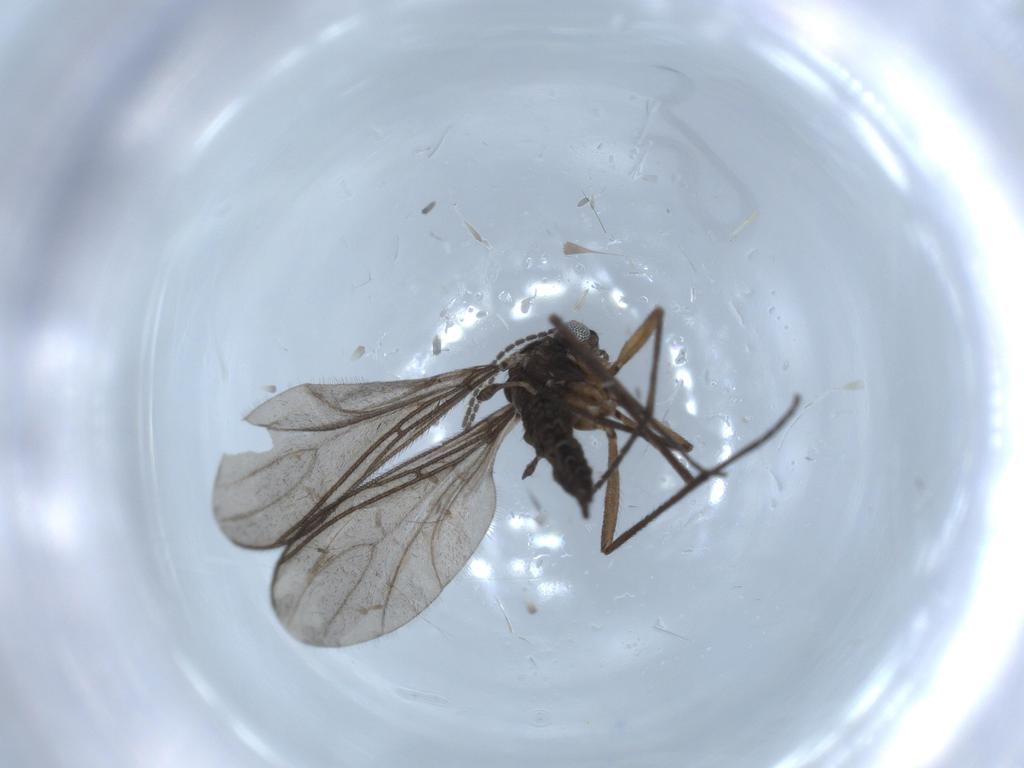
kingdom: Animalia
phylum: Arthropoda
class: Insecta
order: Diptera
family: Sciaridae
